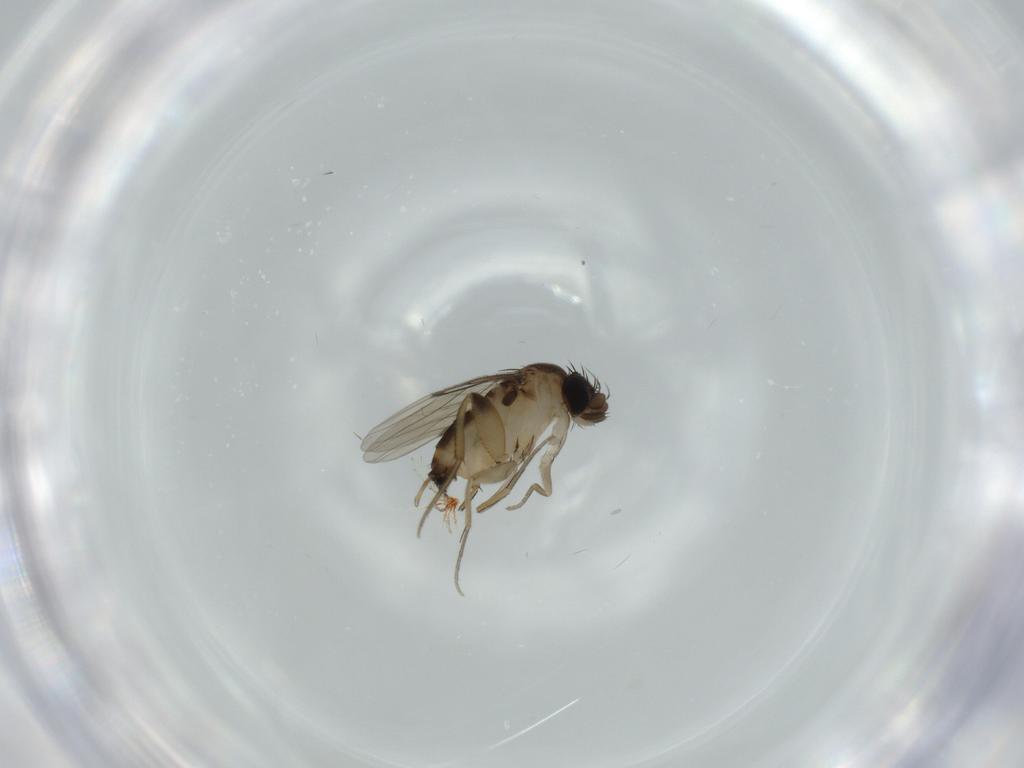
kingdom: Animalia
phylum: Arthropoda
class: Insecta
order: Diptera
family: Phoridae
